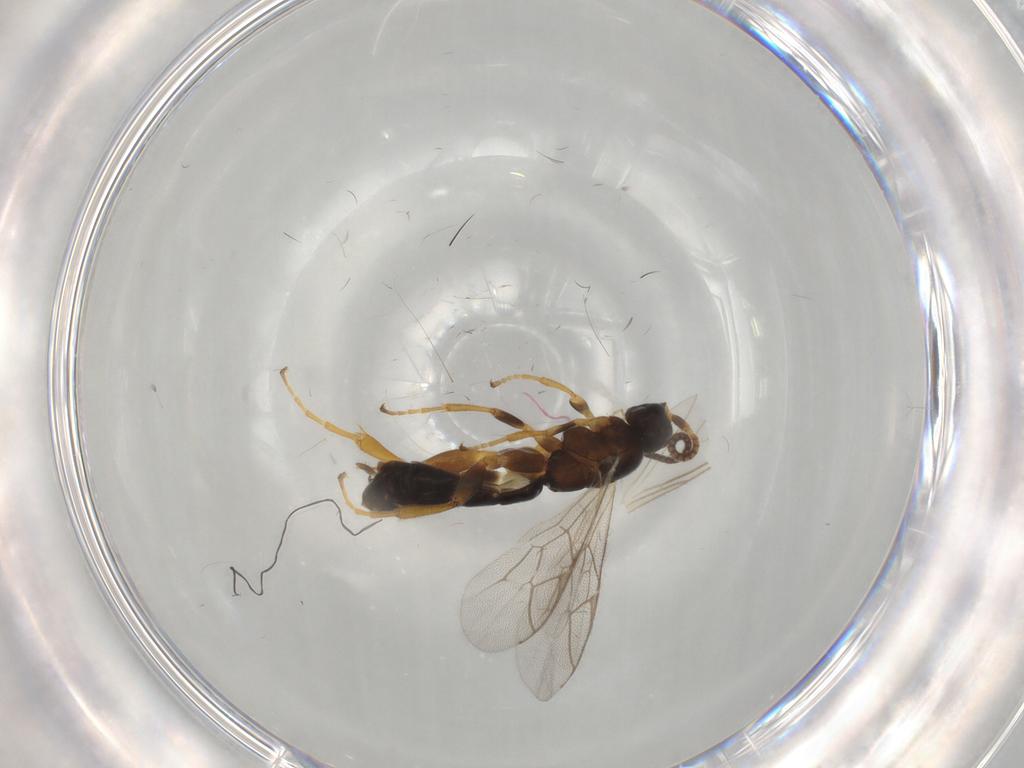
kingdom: Animalia
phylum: Arthropoda
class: Insecta
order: Hymenoptera
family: Ichneumonidae
